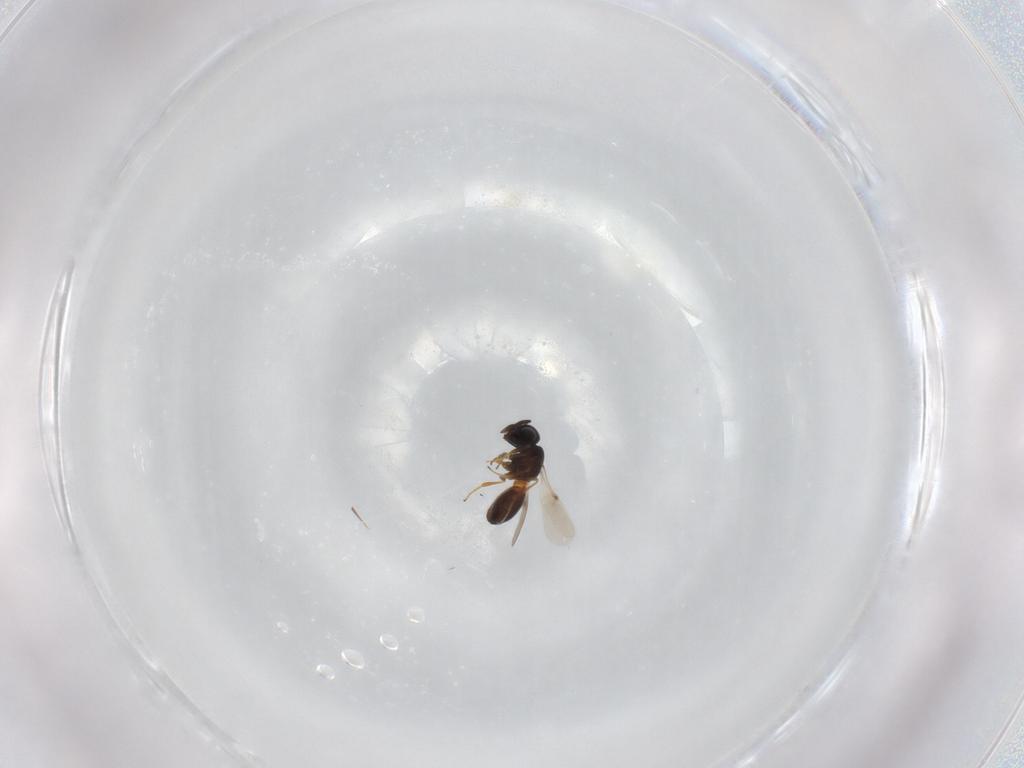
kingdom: Animalia
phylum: Arthropoda
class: Insecta
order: Hymenoptera
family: Scelionidae
